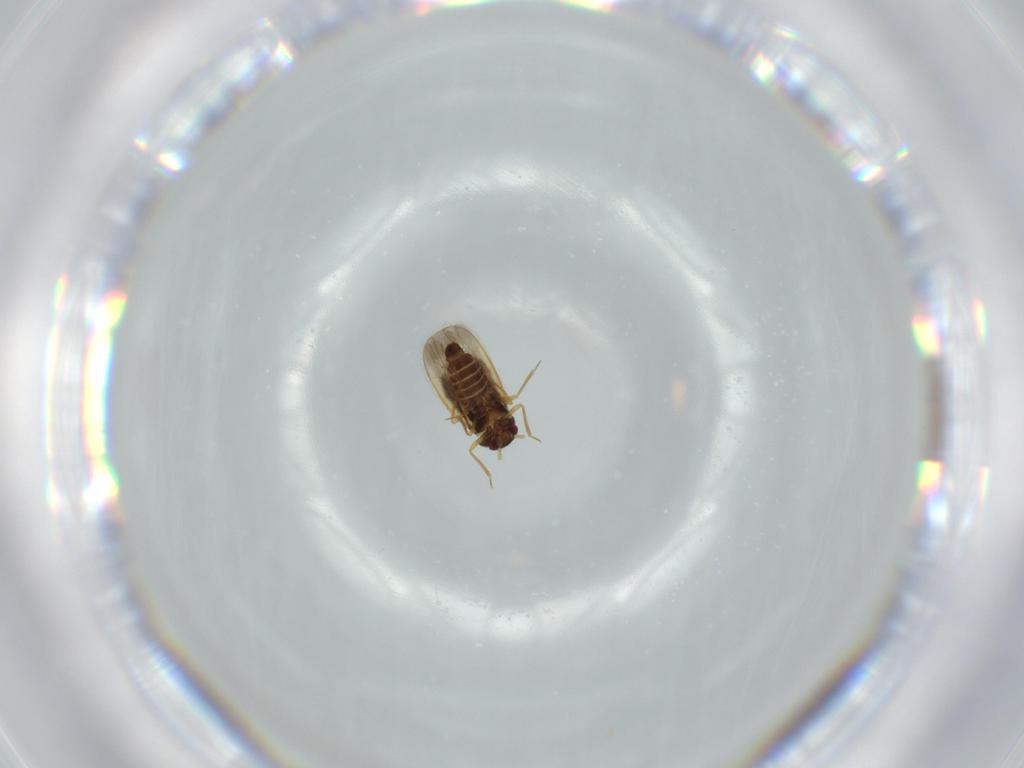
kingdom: Animalia
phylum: Arthropoda
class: Insecta
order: Hemiptera
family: Schizopteridae
